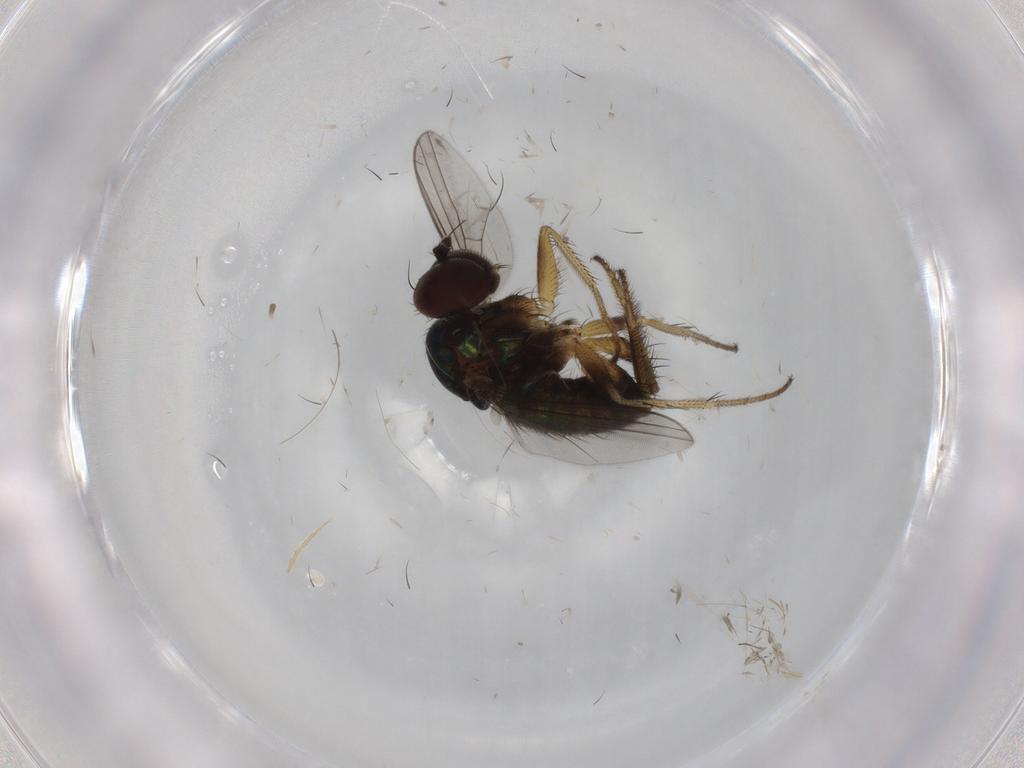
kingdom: Animalia
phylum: Arthropoda
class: Insecta
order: Diptera
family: Dolichopodidae
